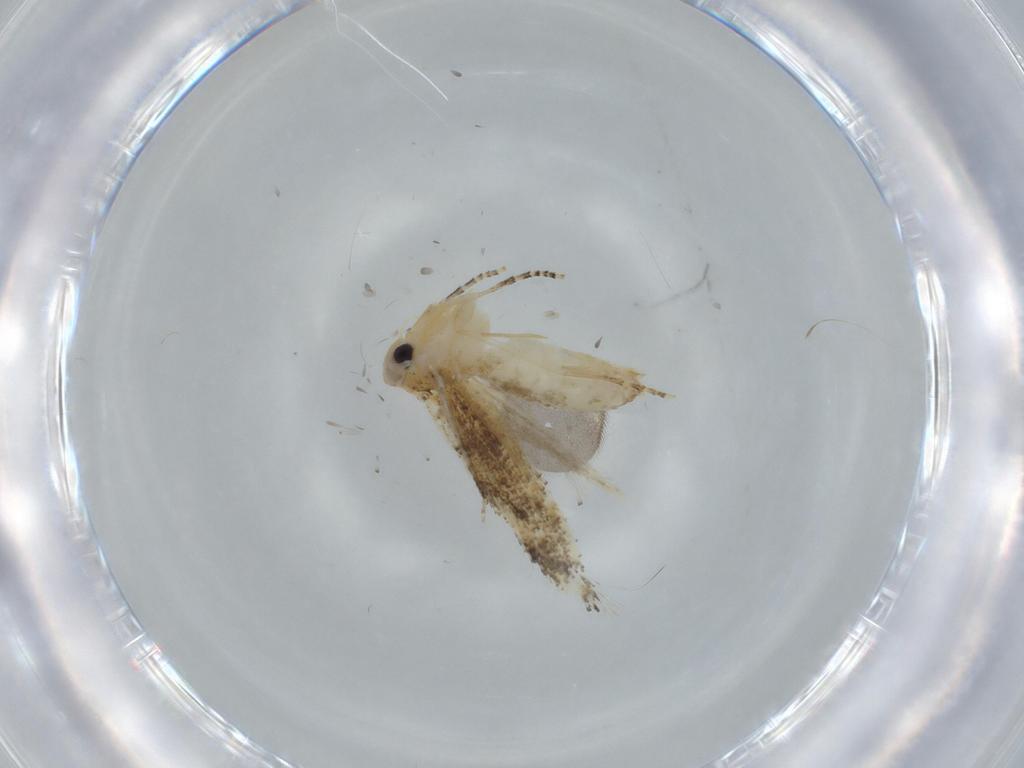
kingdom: Animalia
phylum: Arthropoda
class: Insecta
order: Lepidoptera
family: Bucculatricidae
